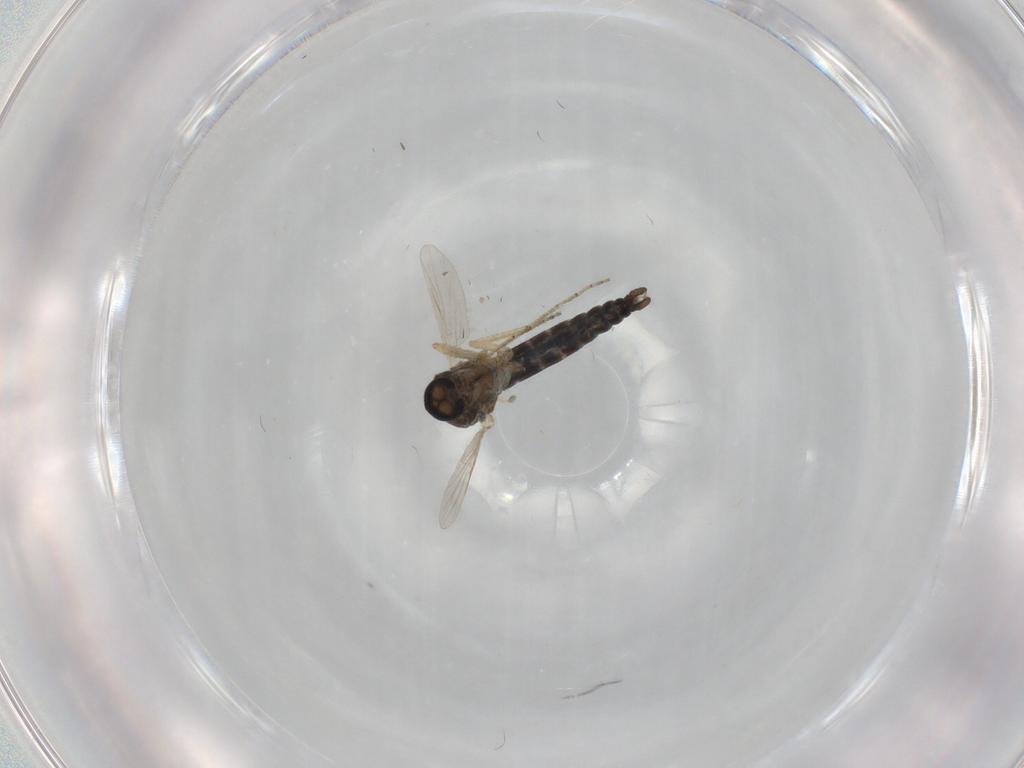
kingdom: Animalia
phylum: Arthropoda
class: Insecta
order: Diptera
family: Ceratopogonidae
